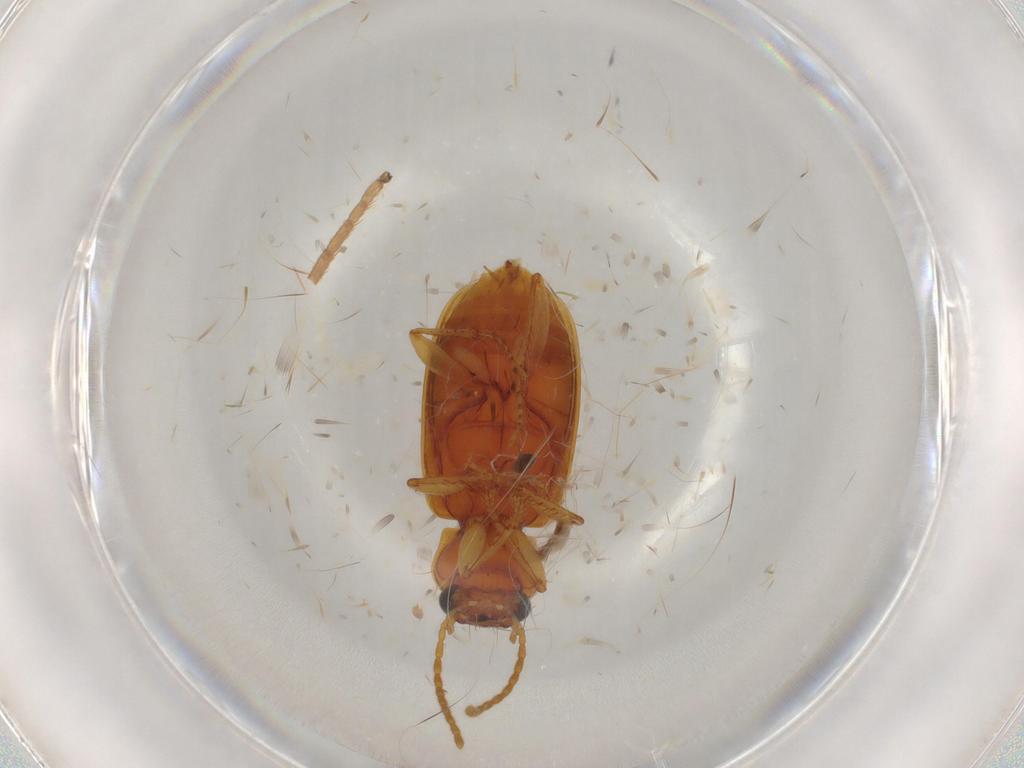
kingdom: Animalia
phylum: Arthropoda
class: Insecta
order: Coleoptera
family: Carabidae
